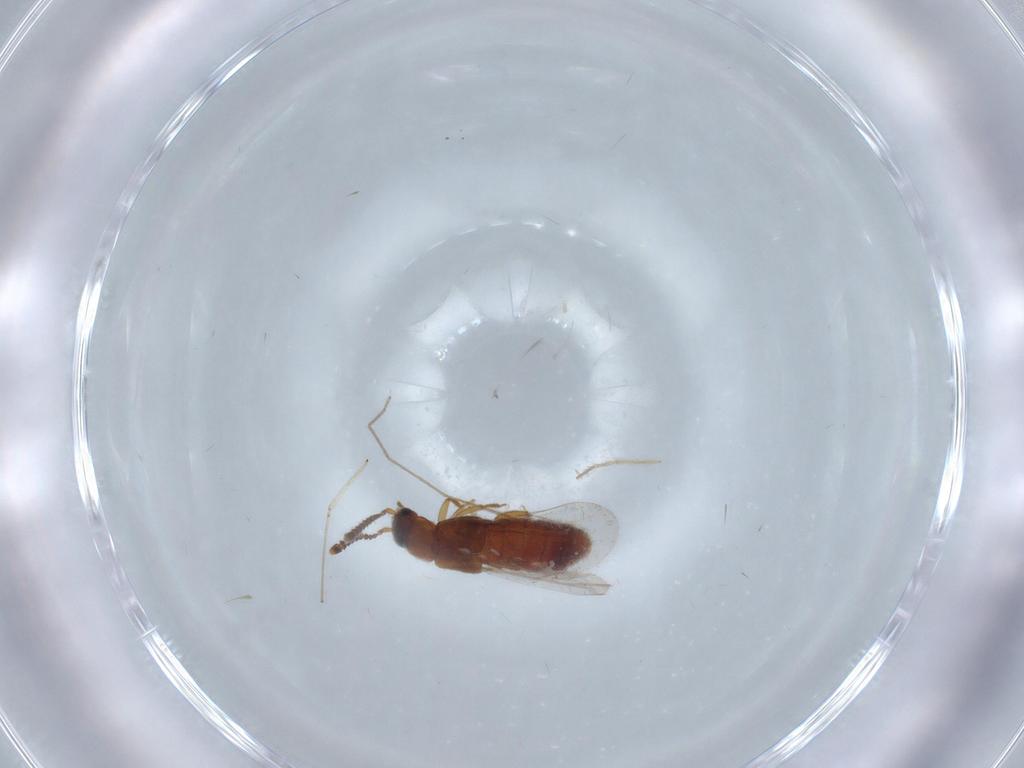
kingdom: Animalia
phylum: Arthropoda
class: Insecta
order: Coleoptera
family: Staphylinidae
